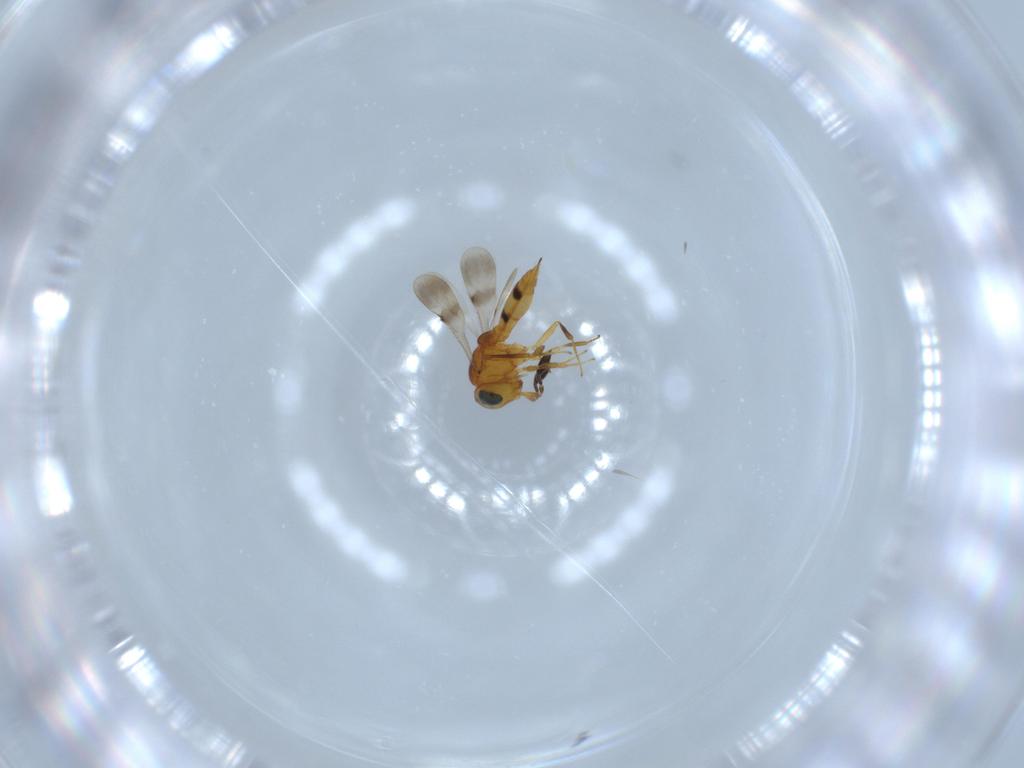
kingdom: Animalia
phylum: Arthropoda
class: Insecta
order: Hymenoptera
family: Scelionidae
